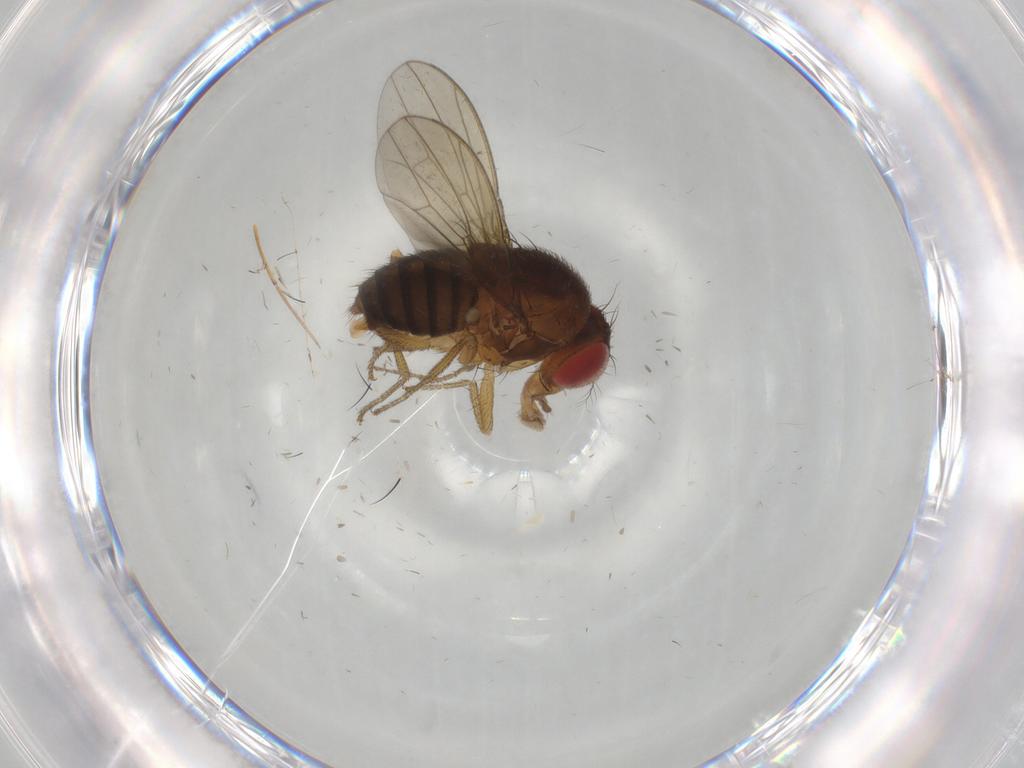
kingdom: Animalia
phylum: Arthropoda
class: Insecta
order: Diptera
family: Drosophilidae
